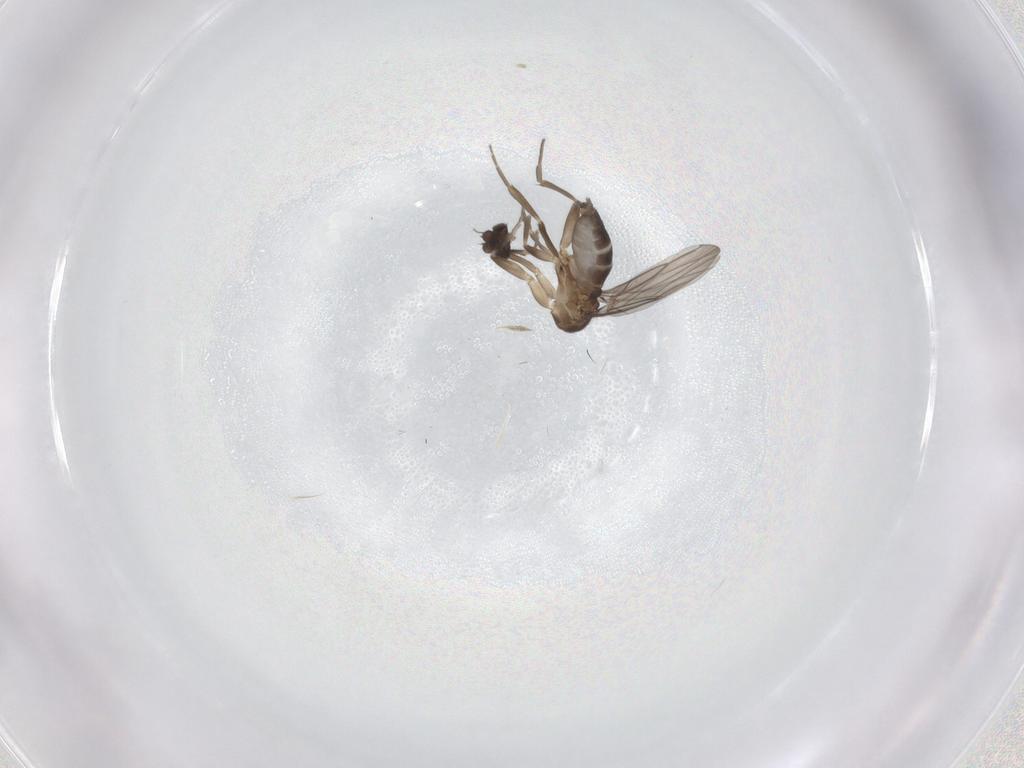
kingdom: Animalia
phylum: Arthropoda
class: Insecta
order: Diptera
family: Phoridae
